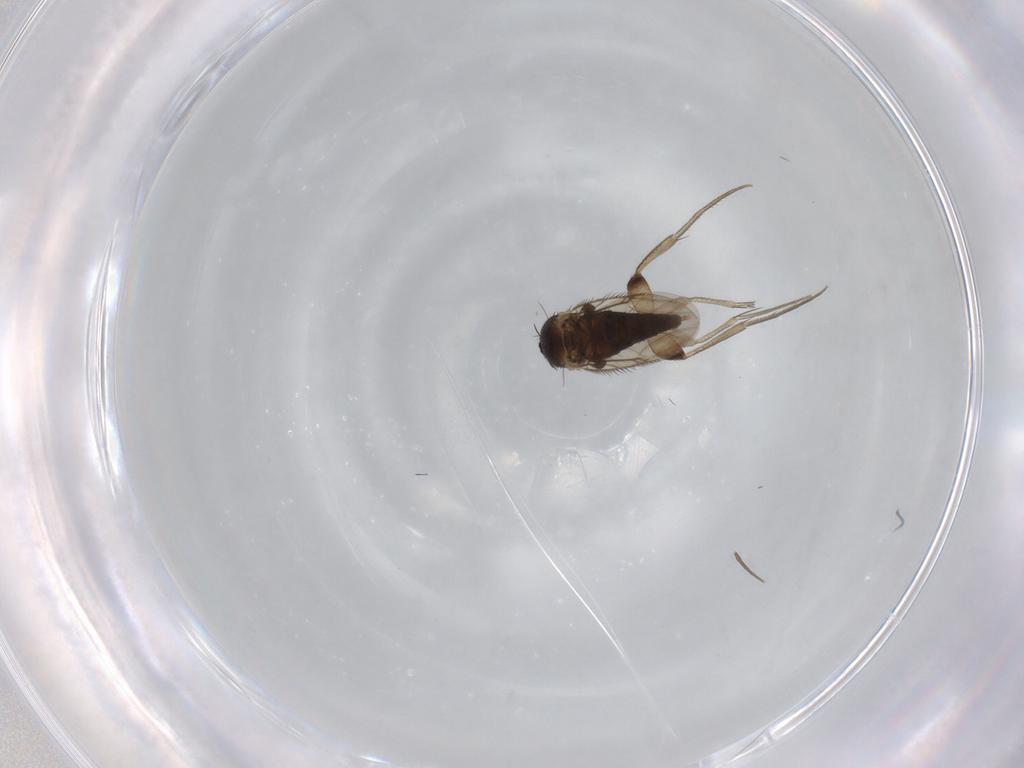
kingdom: Animalia
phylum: Arthropoda
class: Insecta
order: Diptera
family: Phoridae
